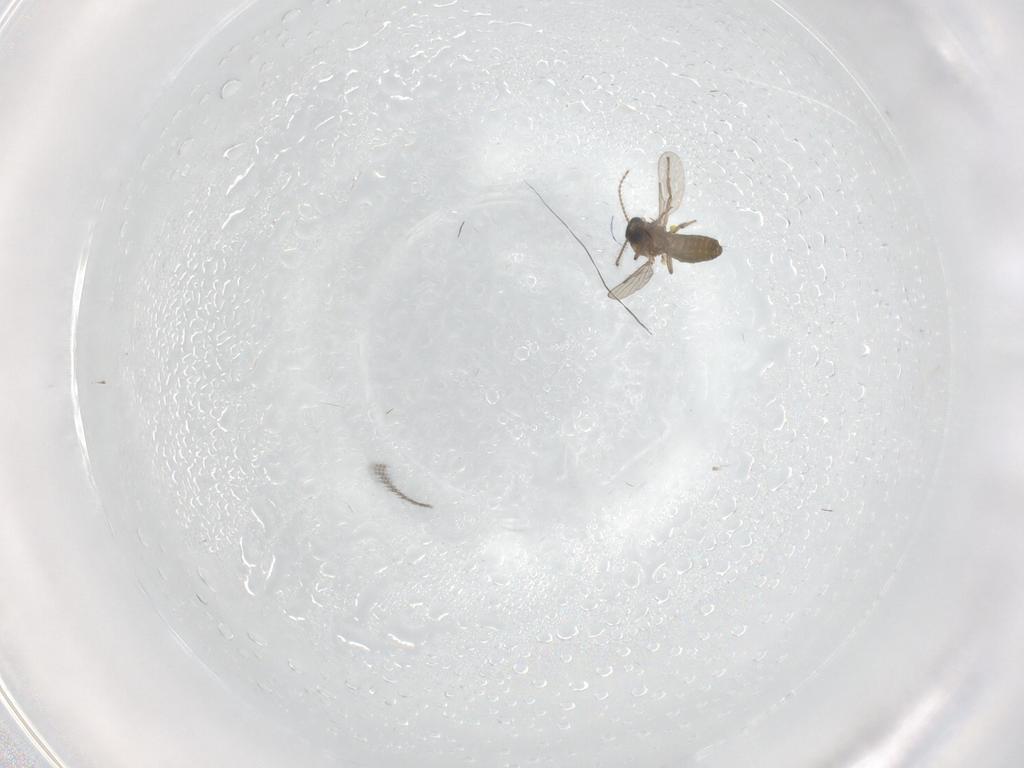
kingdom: Animalia
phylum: Arthropoda
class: Insecta
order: Diptera
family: Ceratopogonidae
